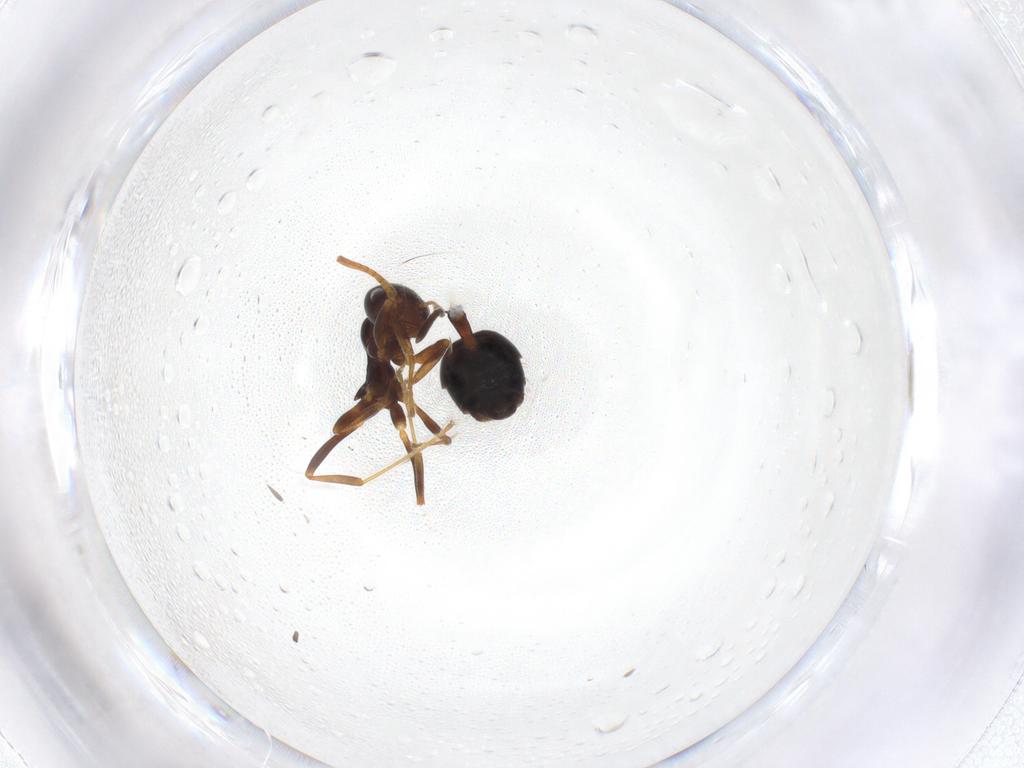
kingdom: Animalia
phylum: Arthropoda
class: Insecta
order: Hymenoptera
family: Formicidae
